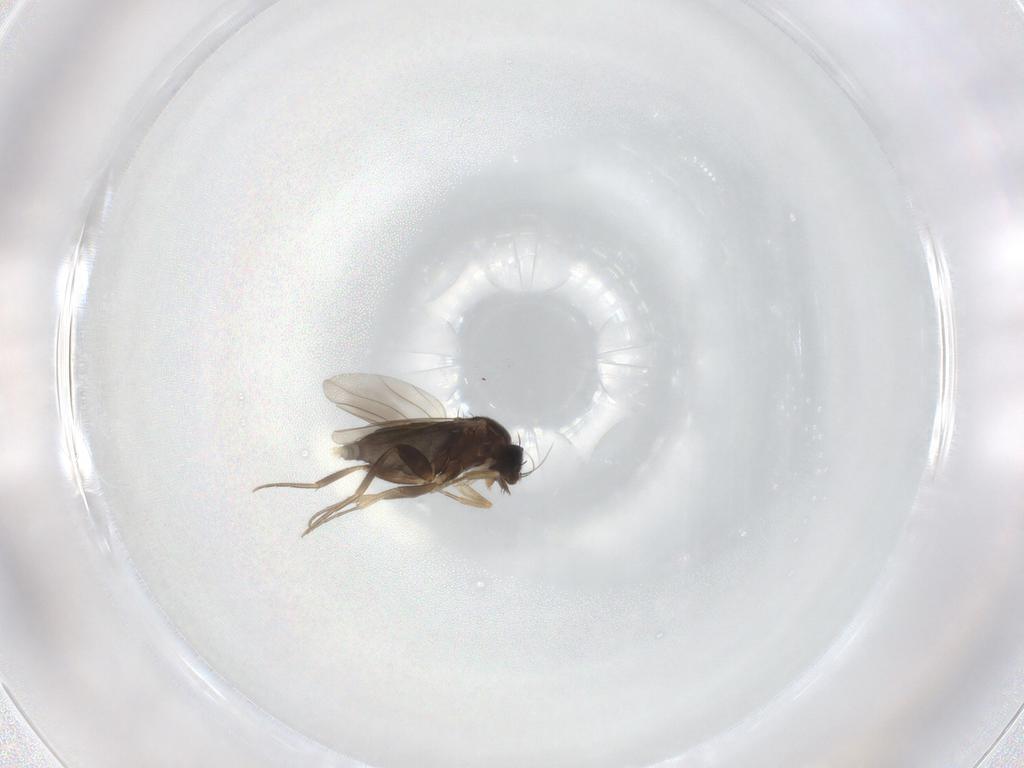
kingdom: Animalia
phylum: Arthropoda
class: Insecta
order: Diptera
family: Phoridae
